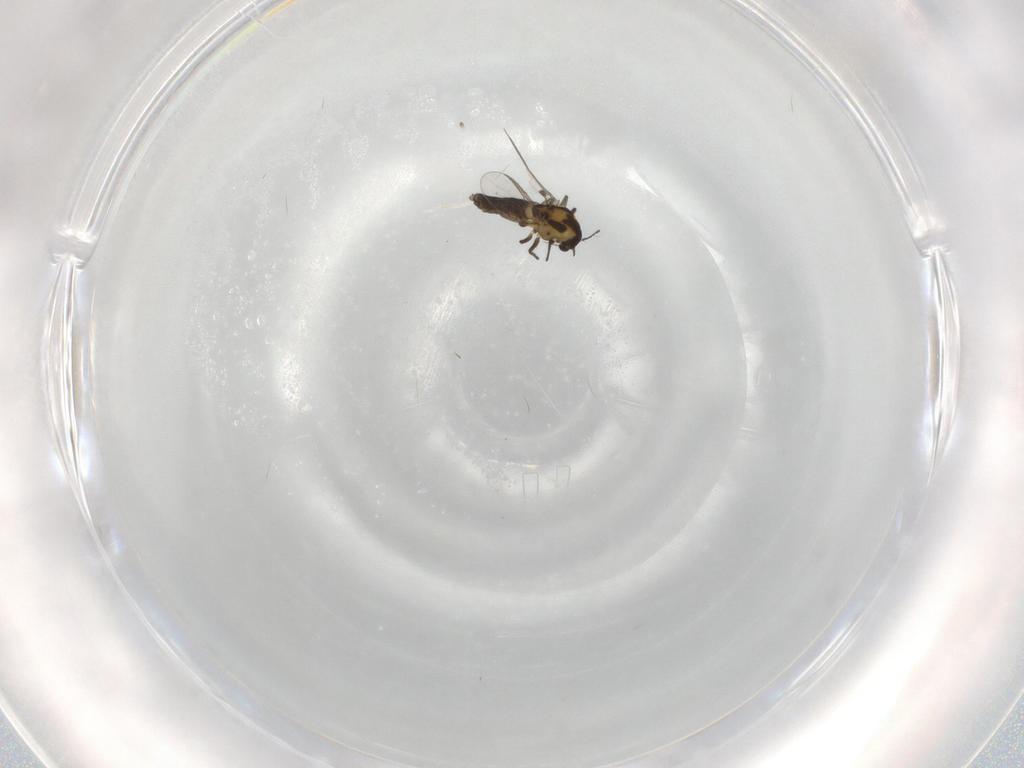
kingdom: Animalia
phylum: Arthropoda
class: Insecta
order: Diptera
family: Chironomidae
